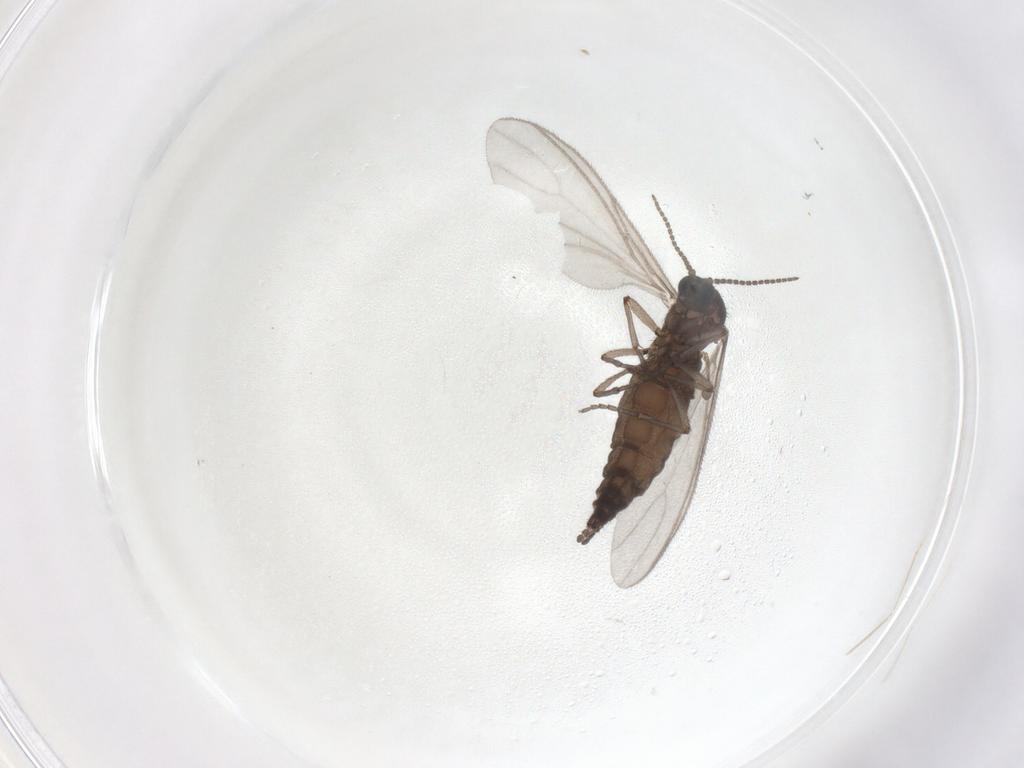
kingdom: Animalia
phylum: Arthropoda
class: Insecta
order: Diptera
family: Sciaridae
